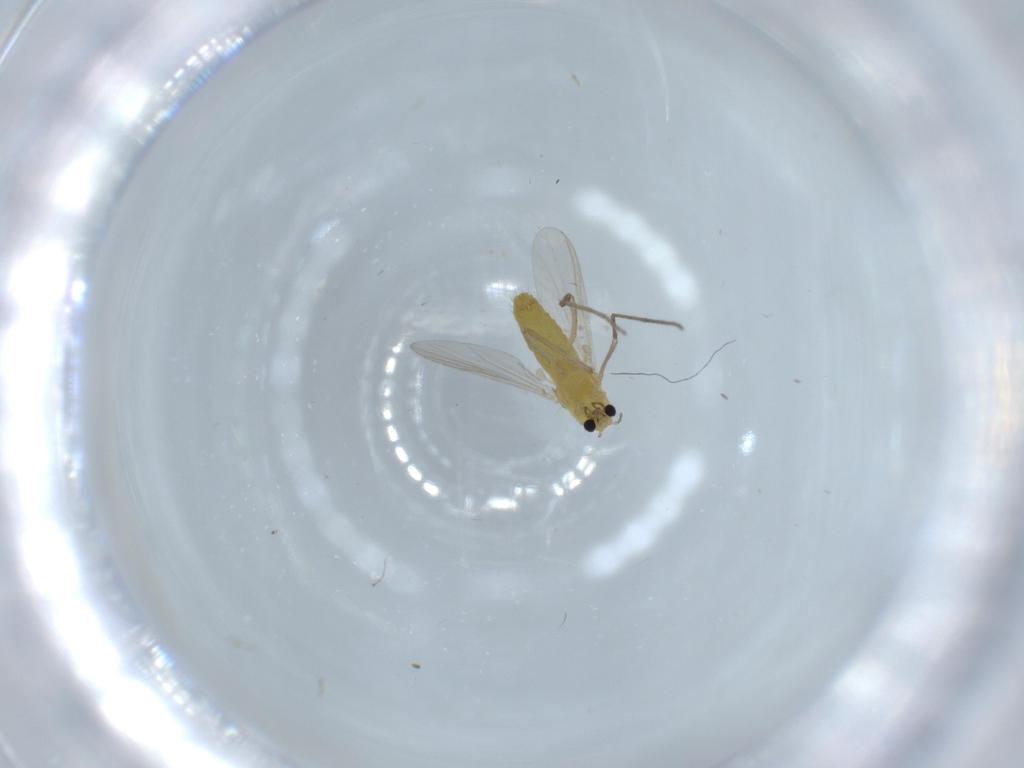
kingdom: Animalia
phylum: Arthropoda
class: Insecta
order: Diptera
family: Chironomidae
